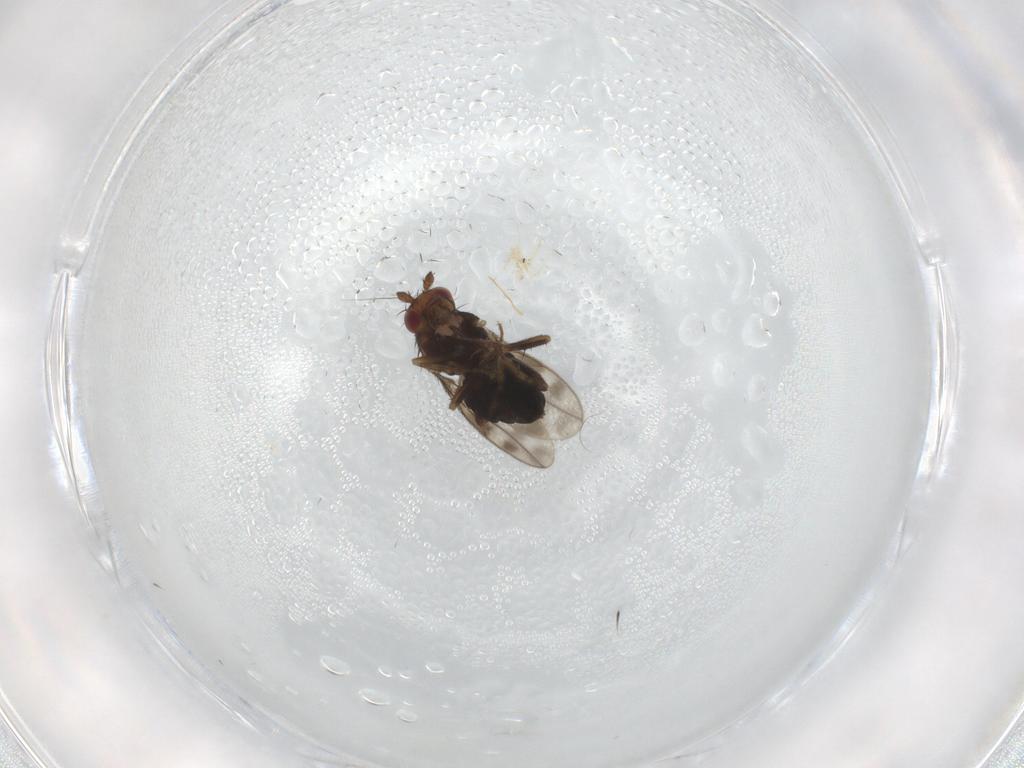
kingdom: Animalia
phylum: Arthropoda
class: Insecta
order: Diptera
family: Sphaeroceridae
